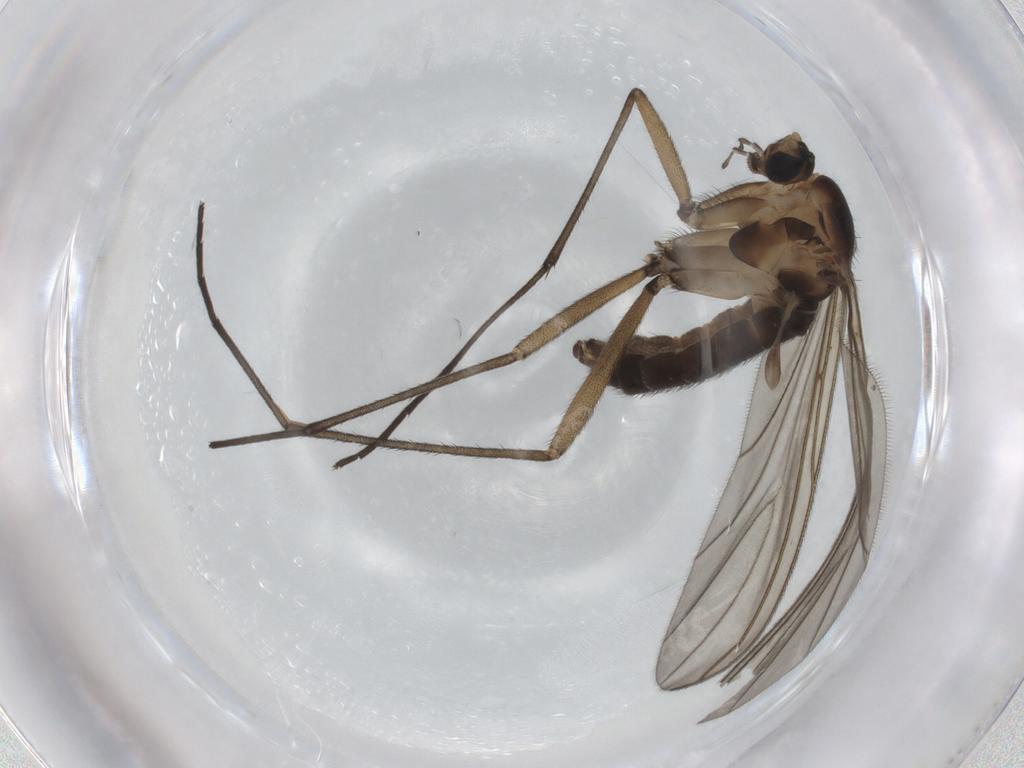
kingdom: Animalia
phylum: Arthropoda
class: Insecta
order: Diptera
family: Sciaridae
